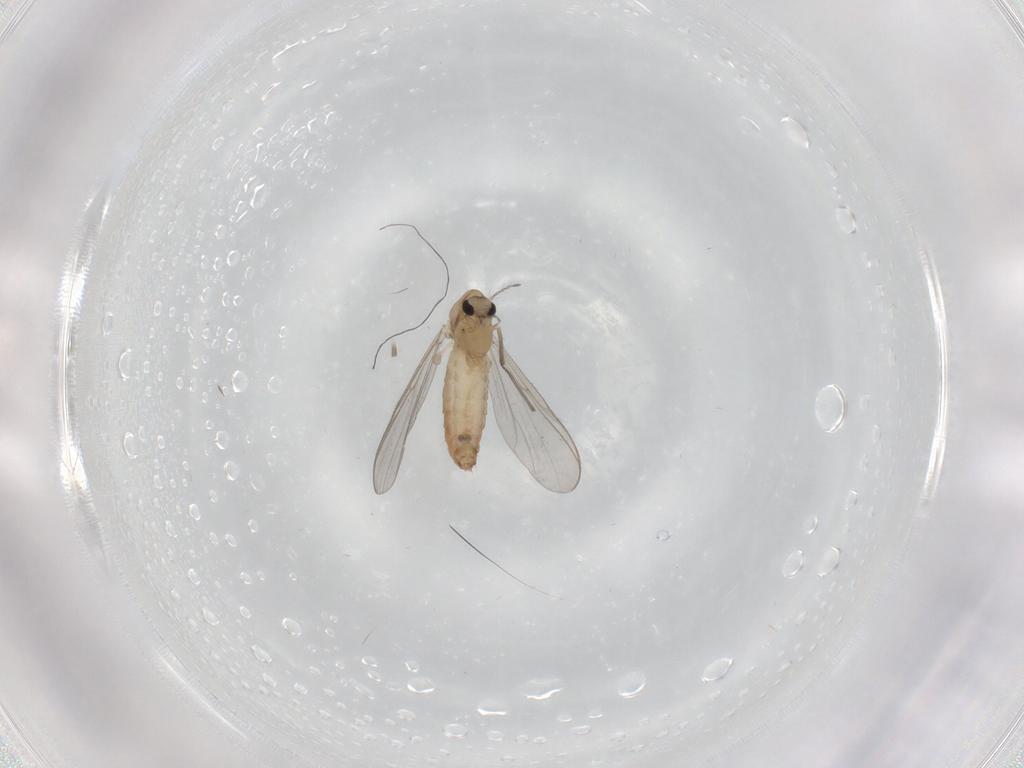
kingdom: Animalia
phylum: Arthropoda
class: Insecta
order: Diptera
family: Chironomidae
